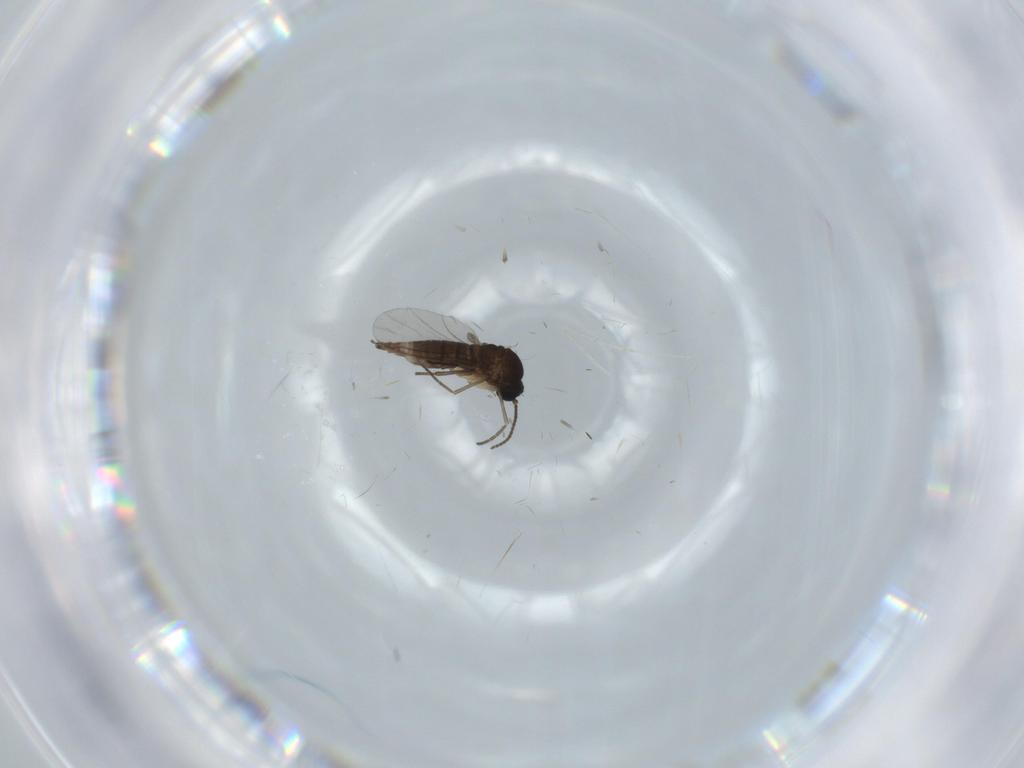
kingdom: Animalia
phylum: Arthropoda
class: Insecta
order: Diptera
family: Sciaridae
